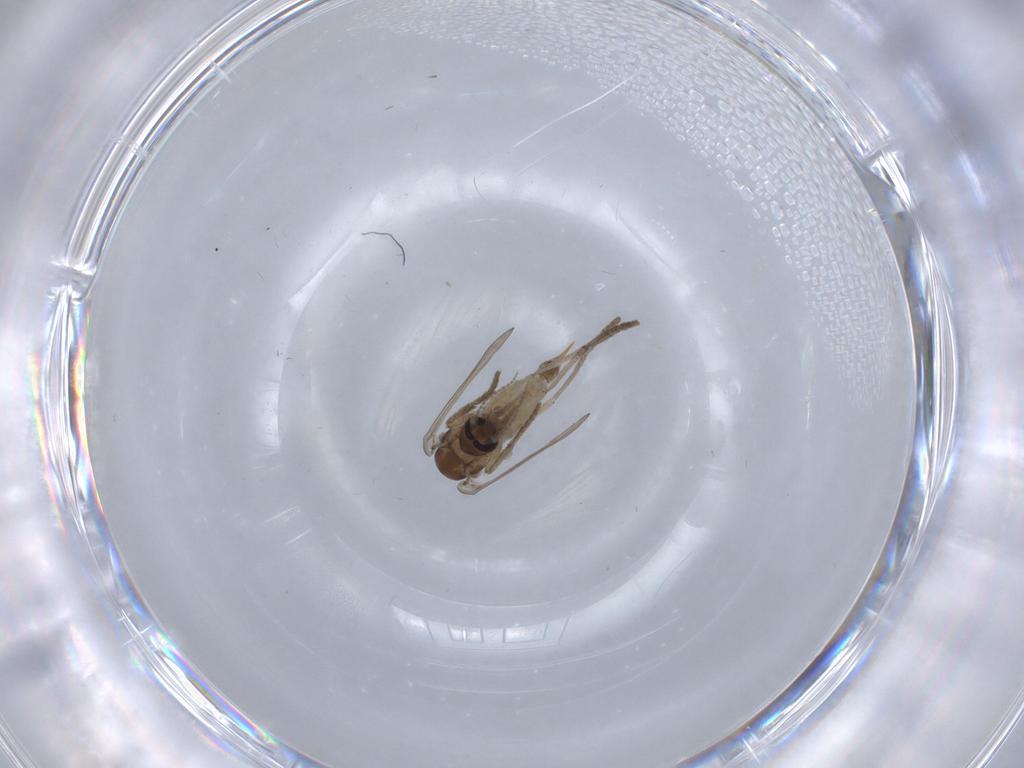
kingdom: Animalia
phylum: Arthropoda
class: Insecta
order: Diptera
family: Psychodidae
